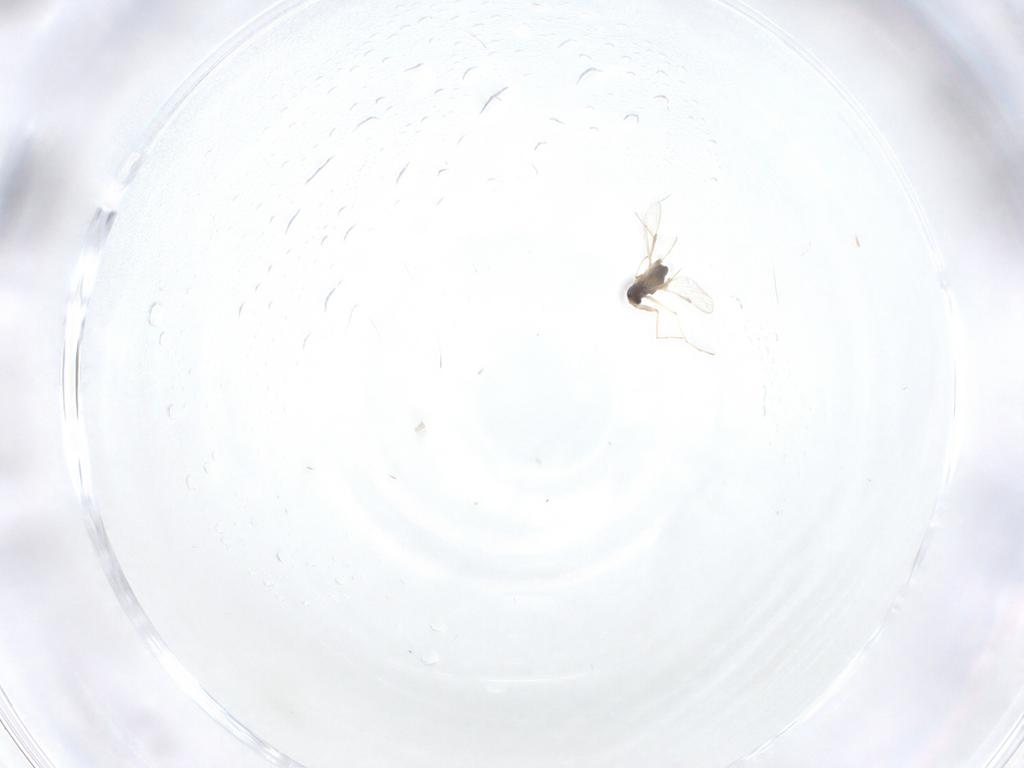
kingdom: Animalia
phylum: Arthropoda
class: Insecta
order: Diptera
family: Chironomidae
